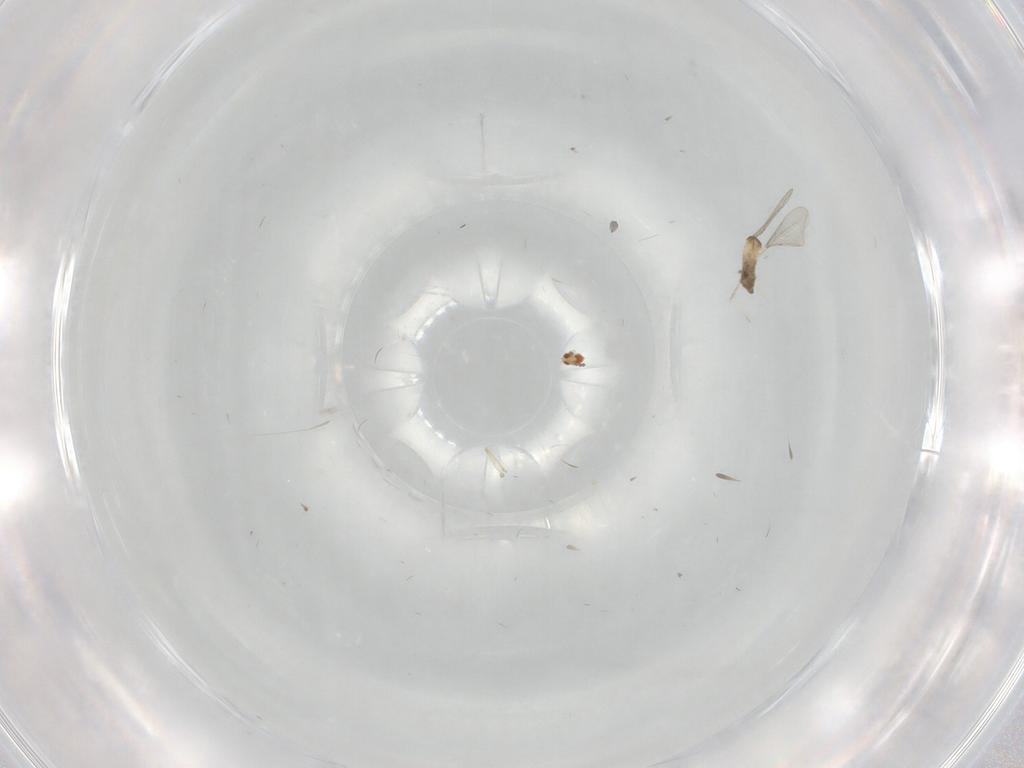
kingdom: Animalia
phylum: Arthropoda
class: Insecta
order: Diptera
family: Cecidomyiidae
